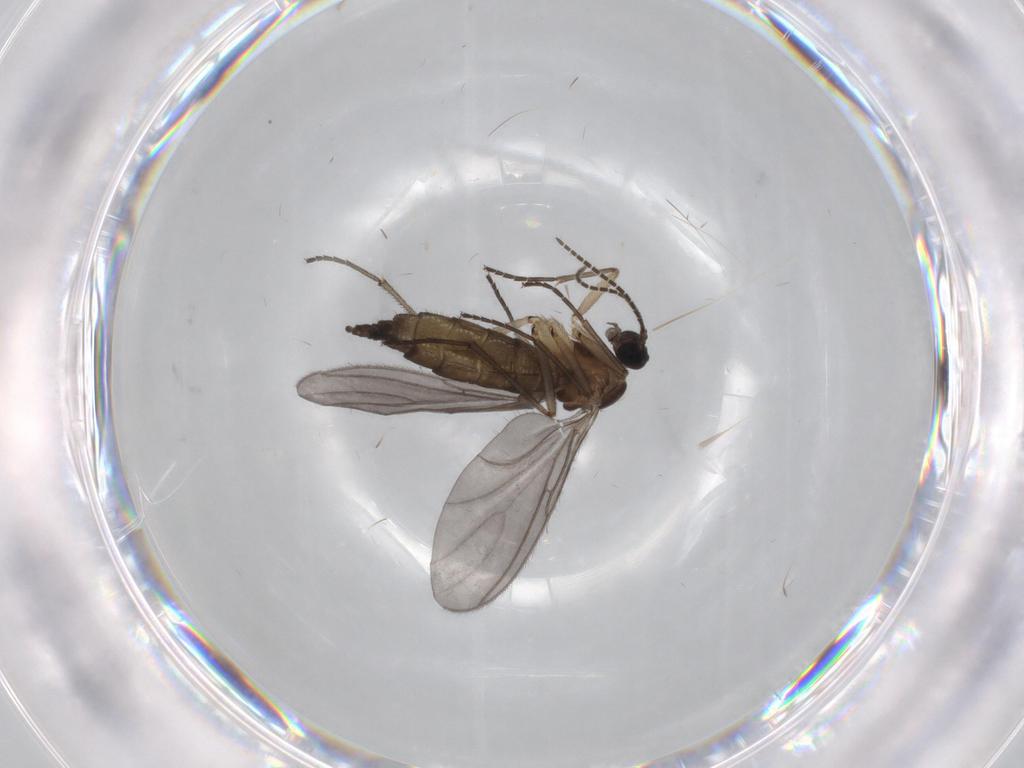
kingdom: Animalia
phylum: Arthropoda
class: Insecta
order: Diptera
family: Sciaridae
